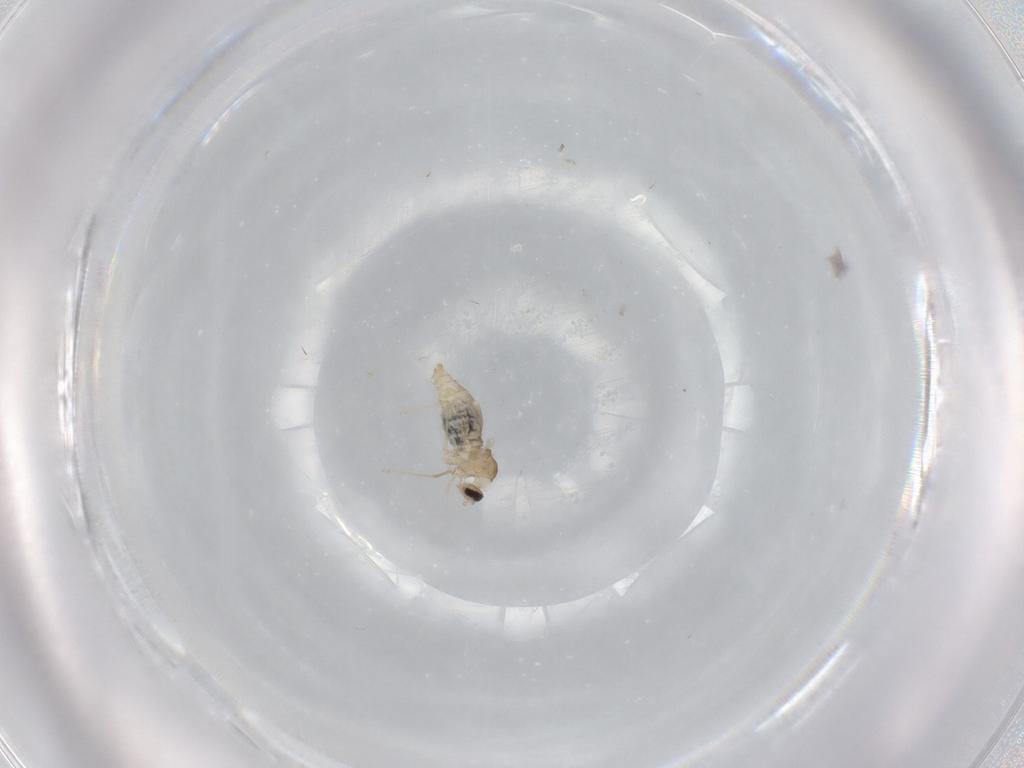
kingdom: Animalia
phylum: Arthropoda
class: Insecta
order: Diptera
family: Cecidomyiidae
